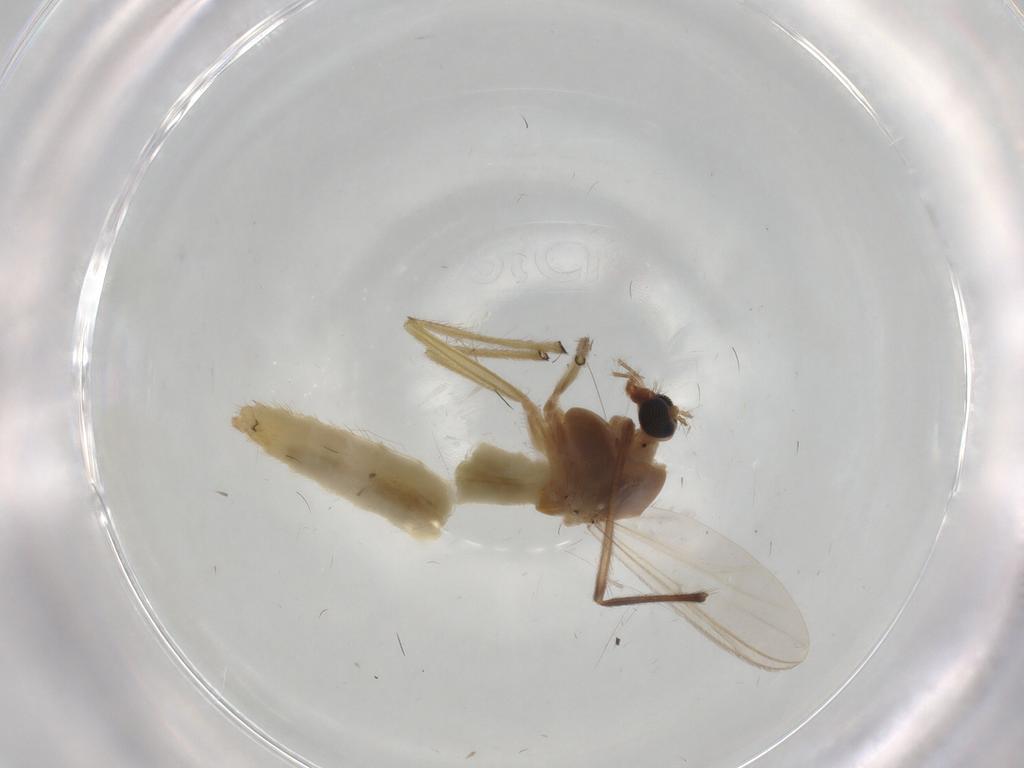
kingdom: Animalia
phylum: Arthropoda
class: Insecta
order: Diptera
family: Chironomidae
